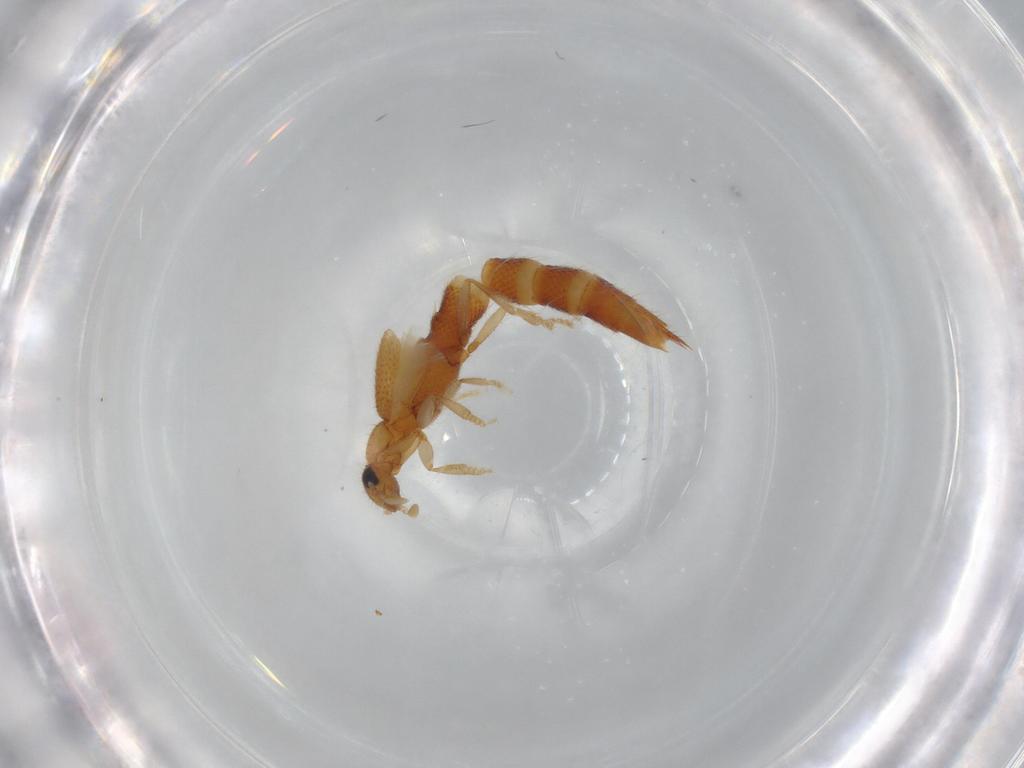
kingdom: Animalia
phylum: Arthropoda
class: Insecta
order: Coleoptera
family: Staphylinidae
